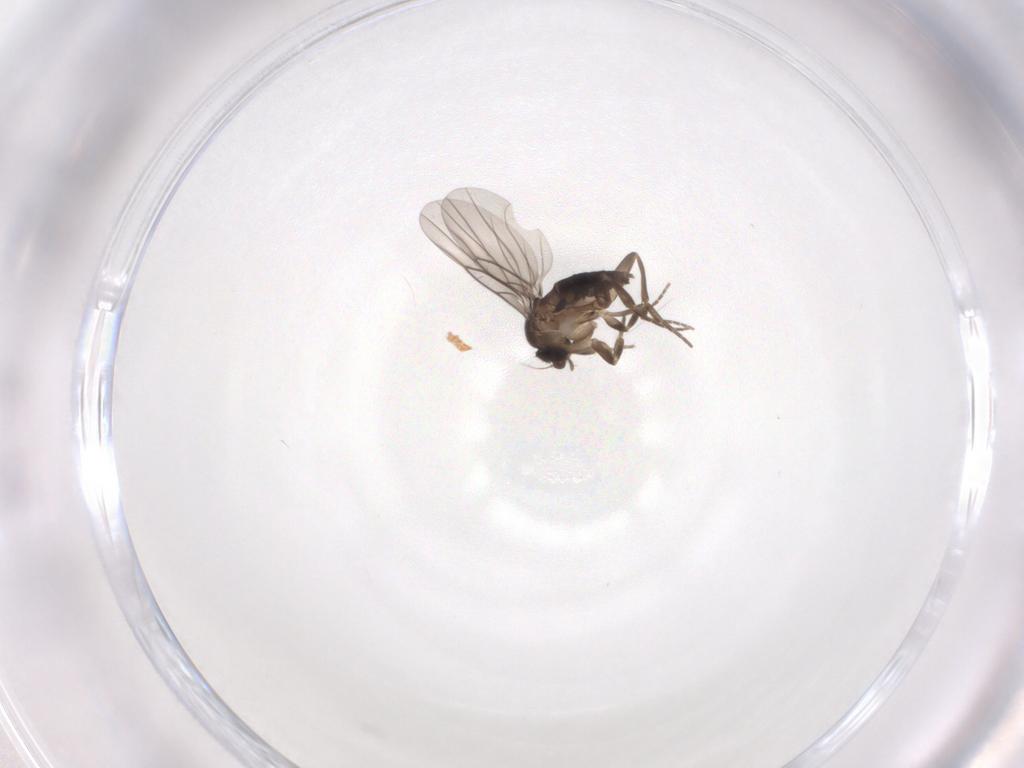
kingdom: Animalia
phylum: Arthropoda
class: Insecta
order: Diptera
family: Phoridae
